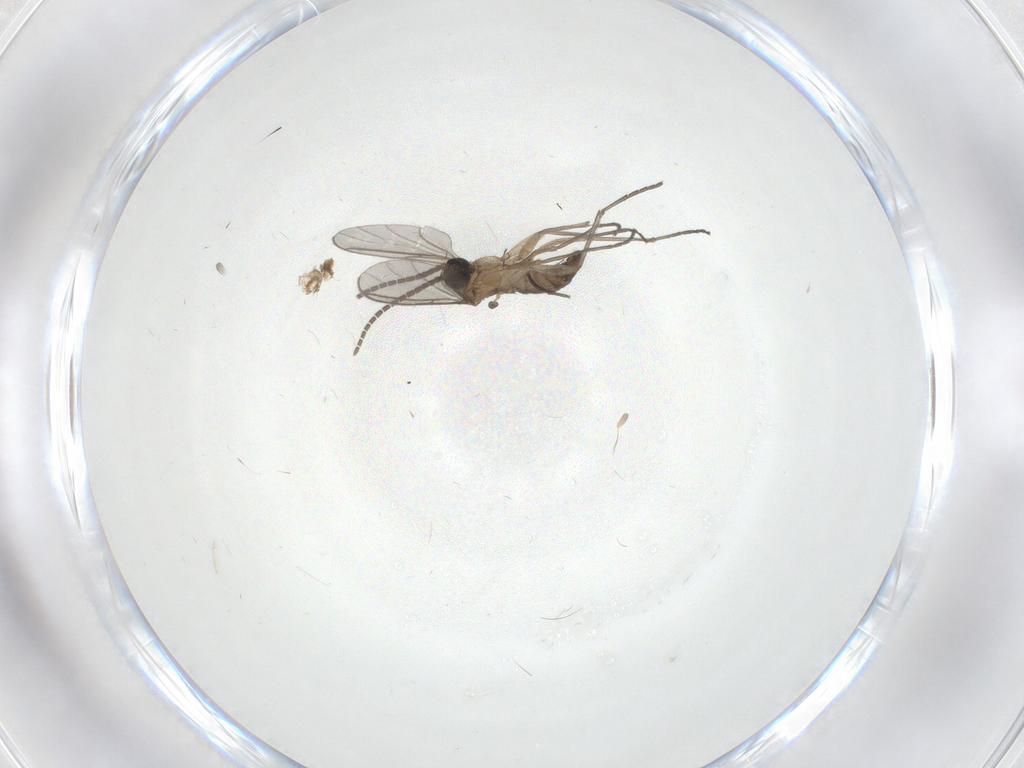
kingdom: Animalia
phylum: Arthropoda
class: Insecta
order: Diptera
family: Sciaridae
